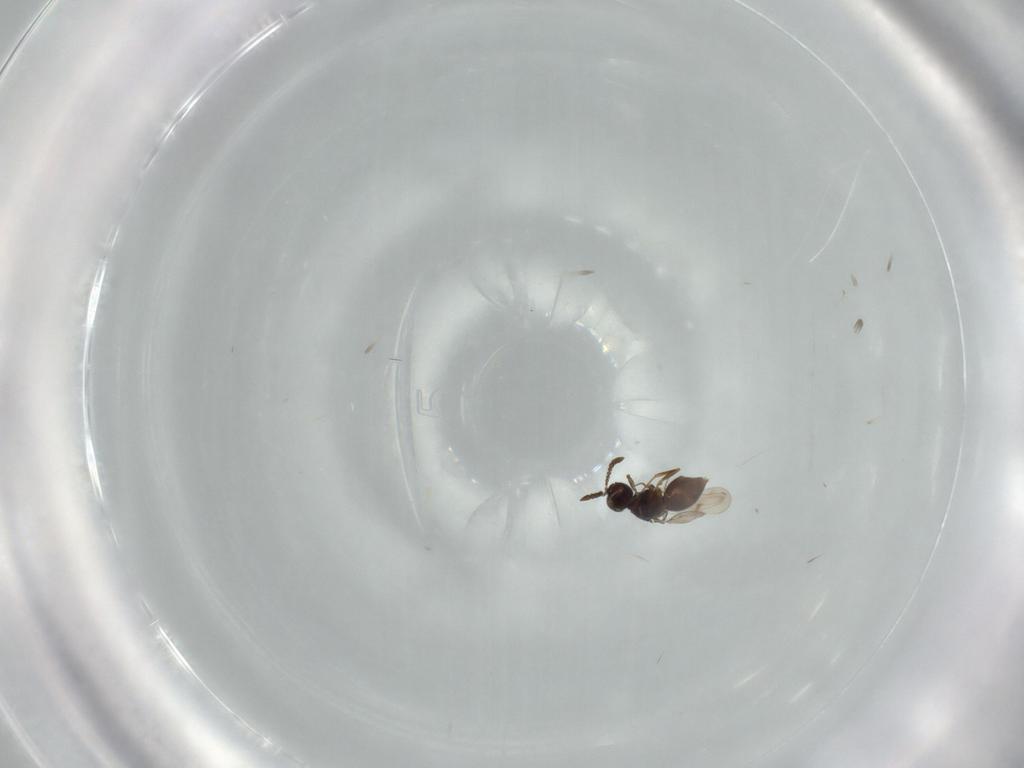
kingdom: Animalia
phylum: Arthropoda
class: Insecta
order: Hymenoptera
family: Ceraphronidae
